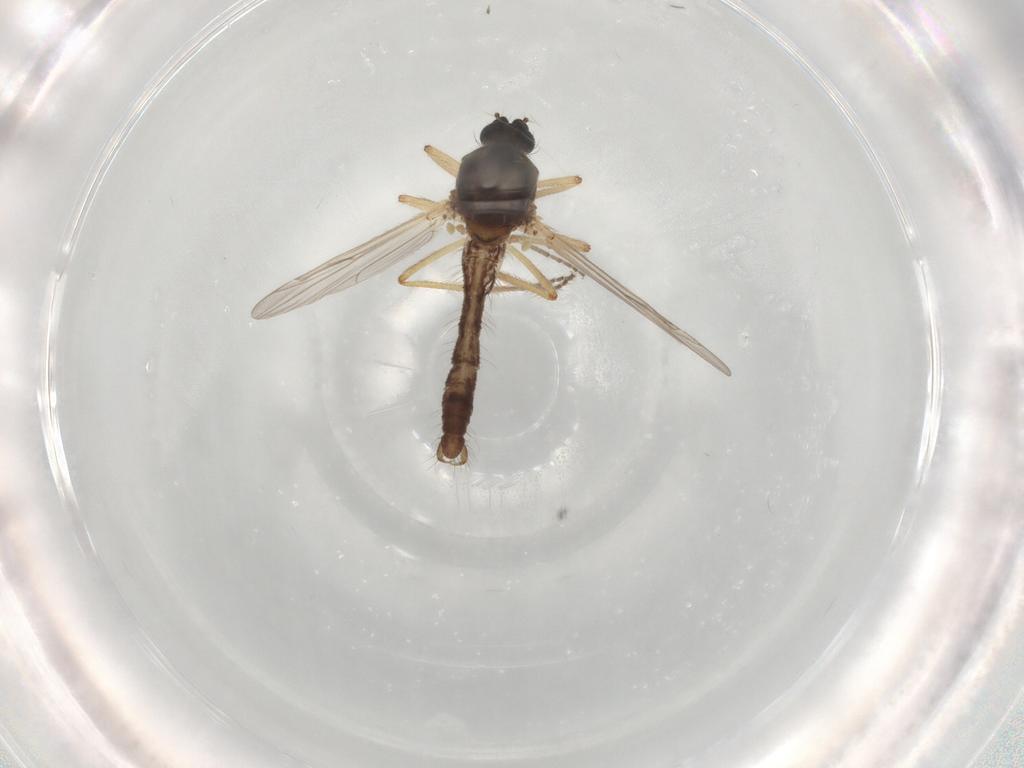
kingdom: Animalia
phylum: Arthropoda
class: Insecta
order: Diptera
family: Ceratopogonidae
